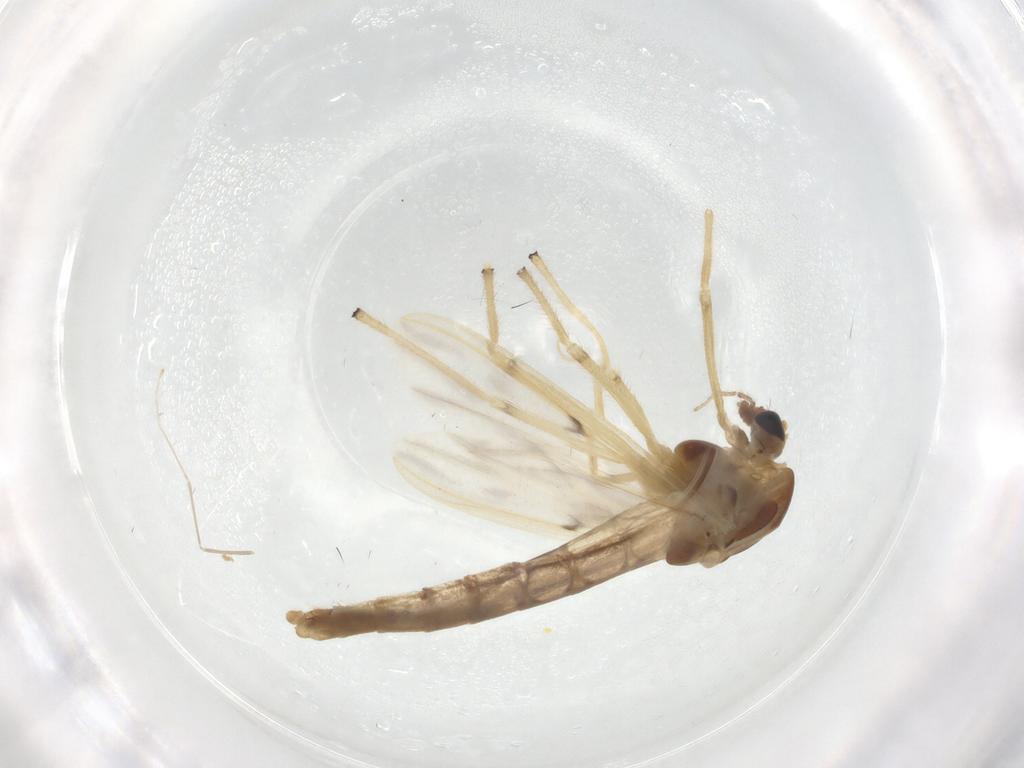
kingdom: Animalia
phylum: Arthropoda
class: Insecta
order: Diptera
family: Chironomidae
